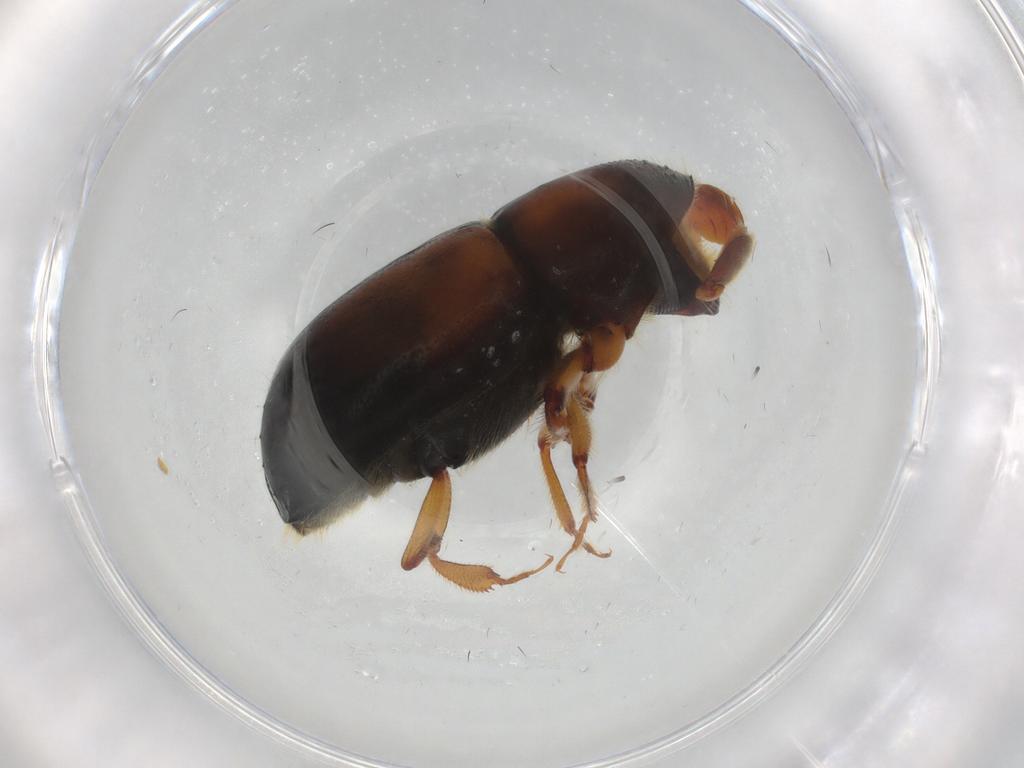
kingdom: Animalia
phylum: Arthropoda
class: Insecta
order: Coleoptera
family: Curculionidae
